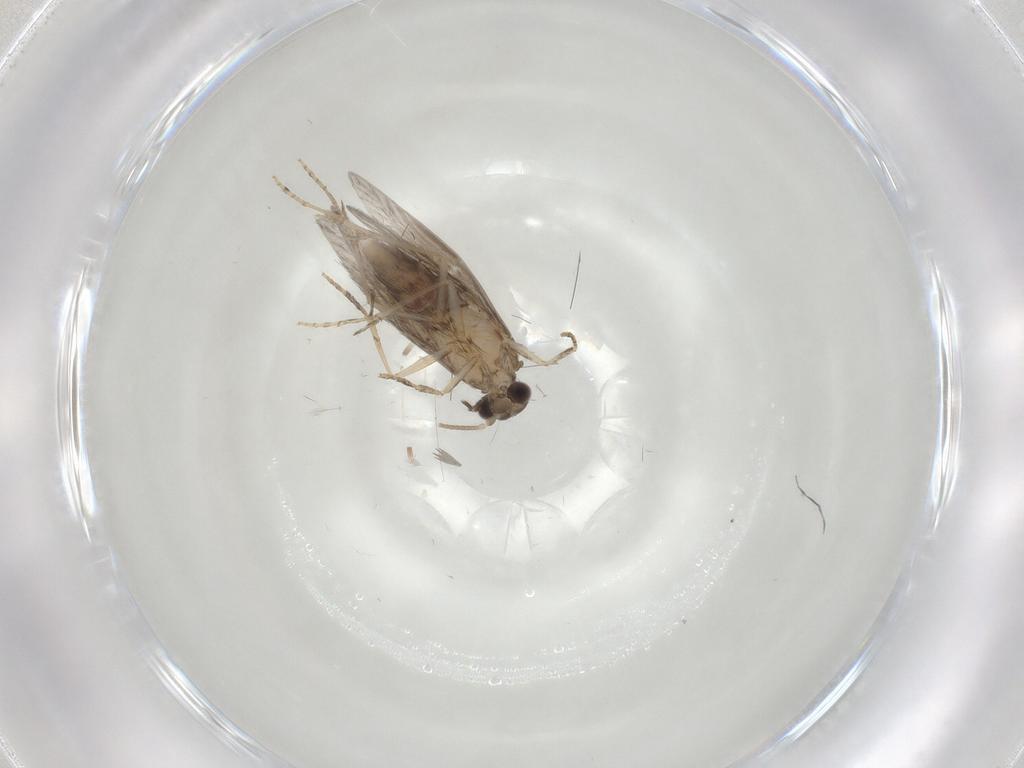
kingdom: Animalia
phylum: Arthropoda
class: Insecta
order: Trichoptera
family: Hydroptilidae
